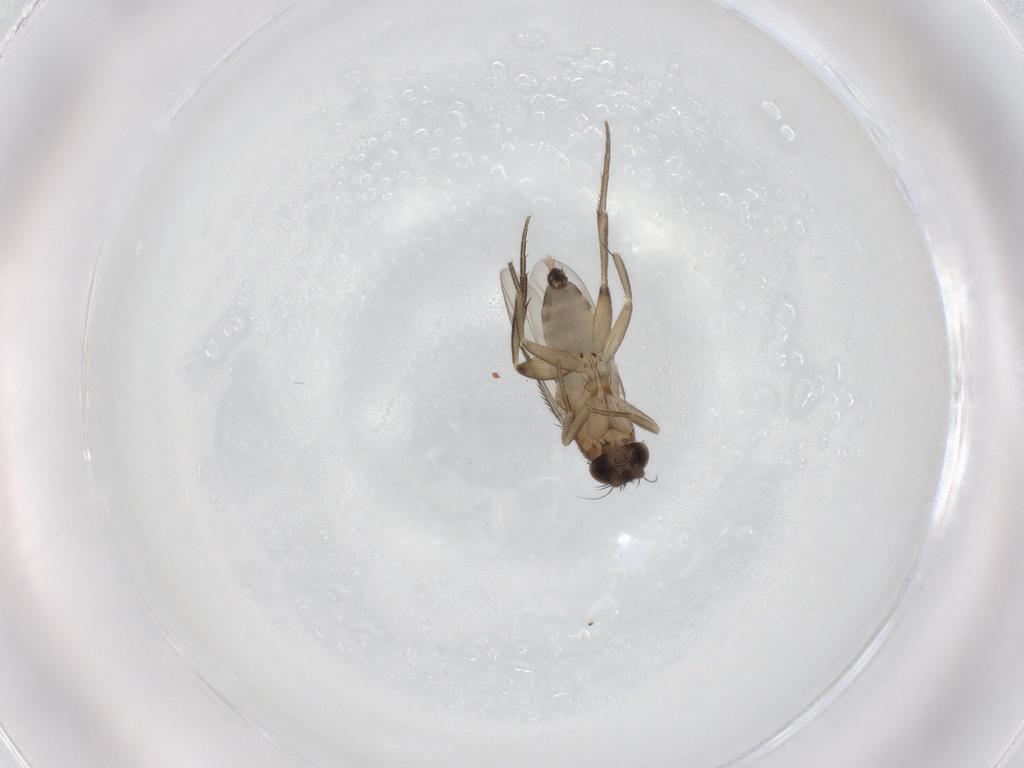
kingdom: Animalia
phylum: Arthropoda
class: Insecta
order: Diptera
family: Phoridae
